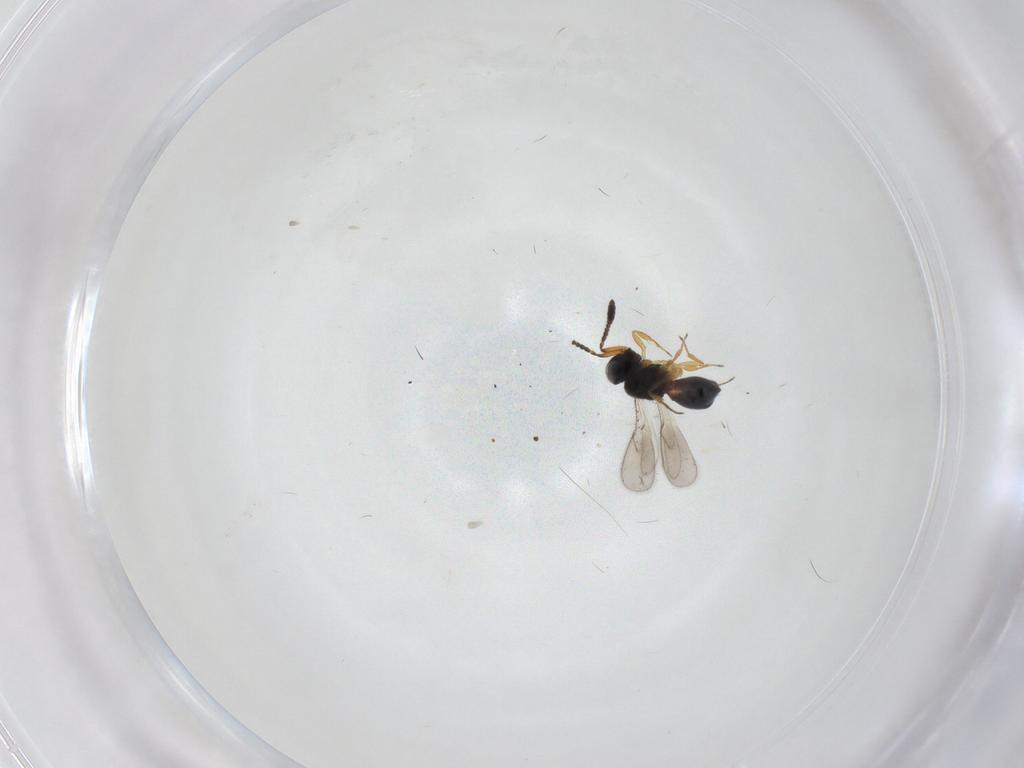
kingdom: Animalia
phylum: Arthropoda
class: Insecta
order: Hymenoptera
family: Scelionidae
